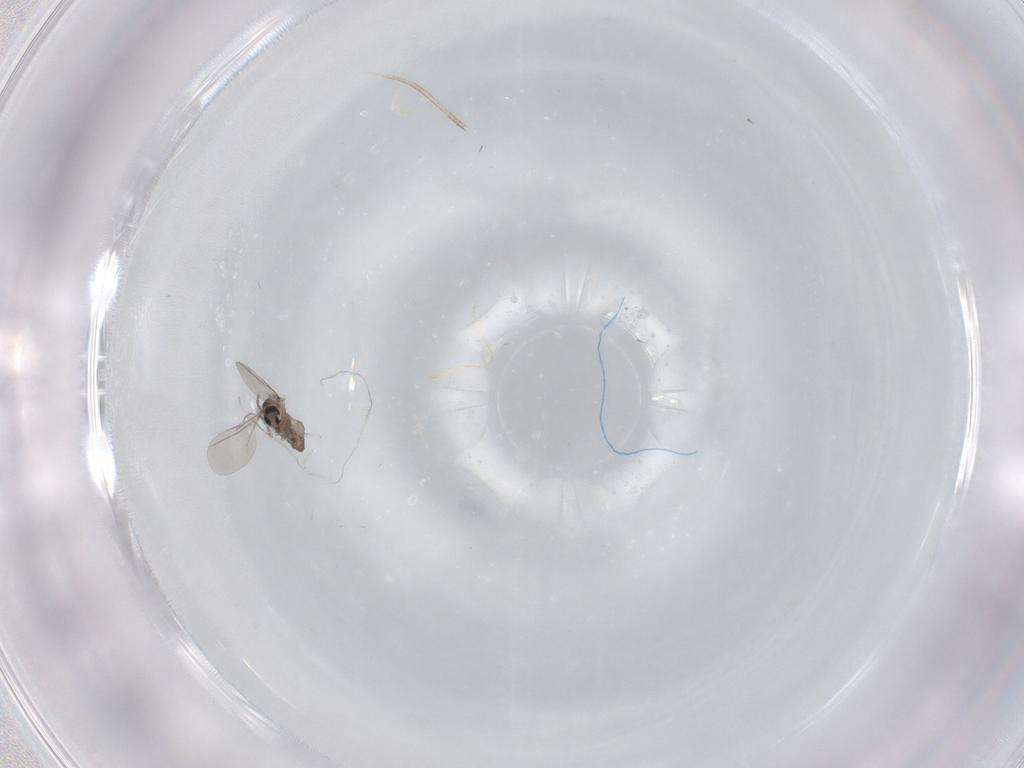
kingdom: Animalia
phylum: Arthropoda
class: Insecta
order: Diptera
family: Cecidomyiidae
